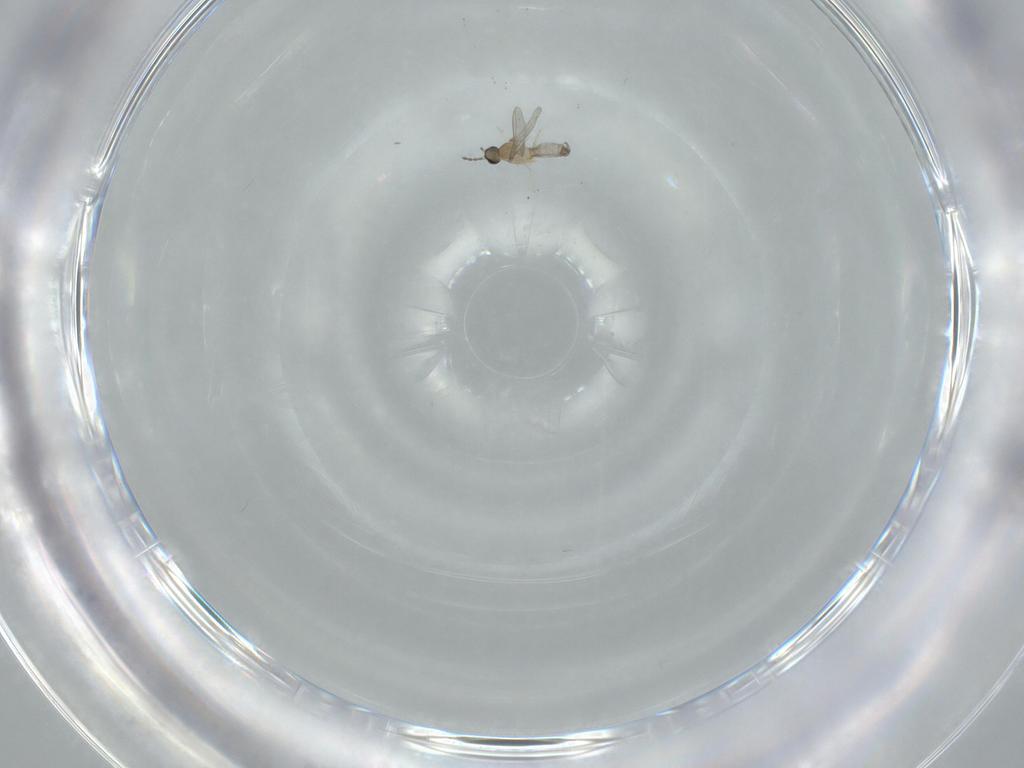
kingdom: Animalia
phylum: Arthropoda
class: Insecta
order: Diptera
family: Cecidomyiidae
